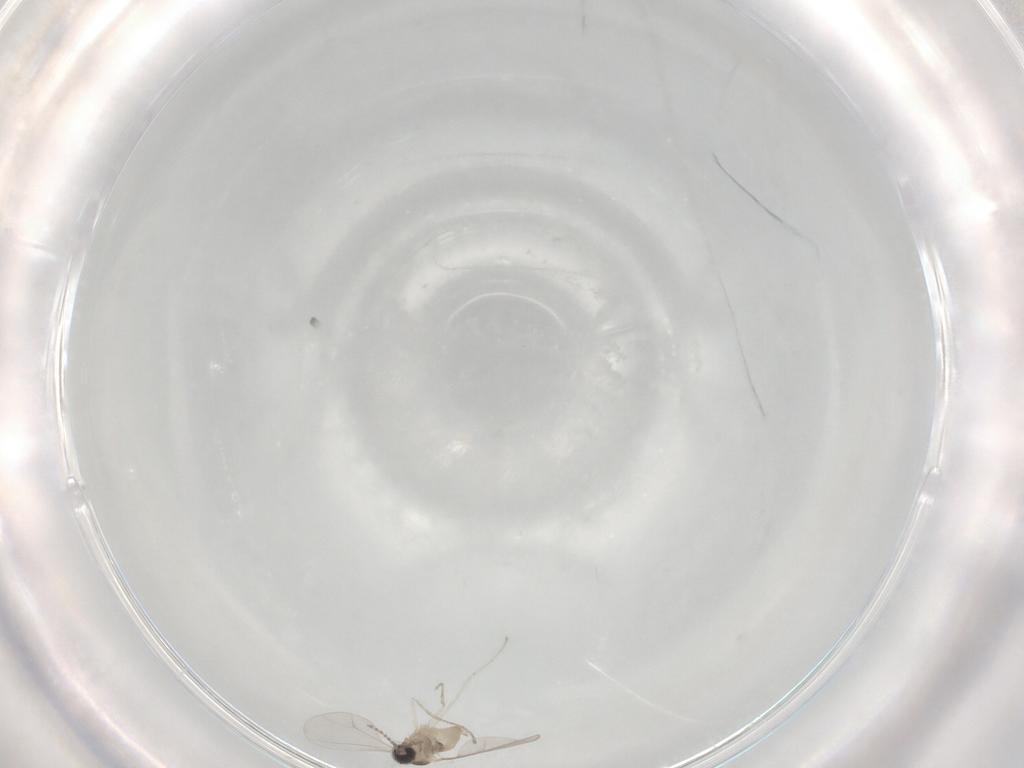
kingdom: Animalia
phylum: Arthropoda
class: Insecta
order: Diptera
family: Cecidomyiidae
